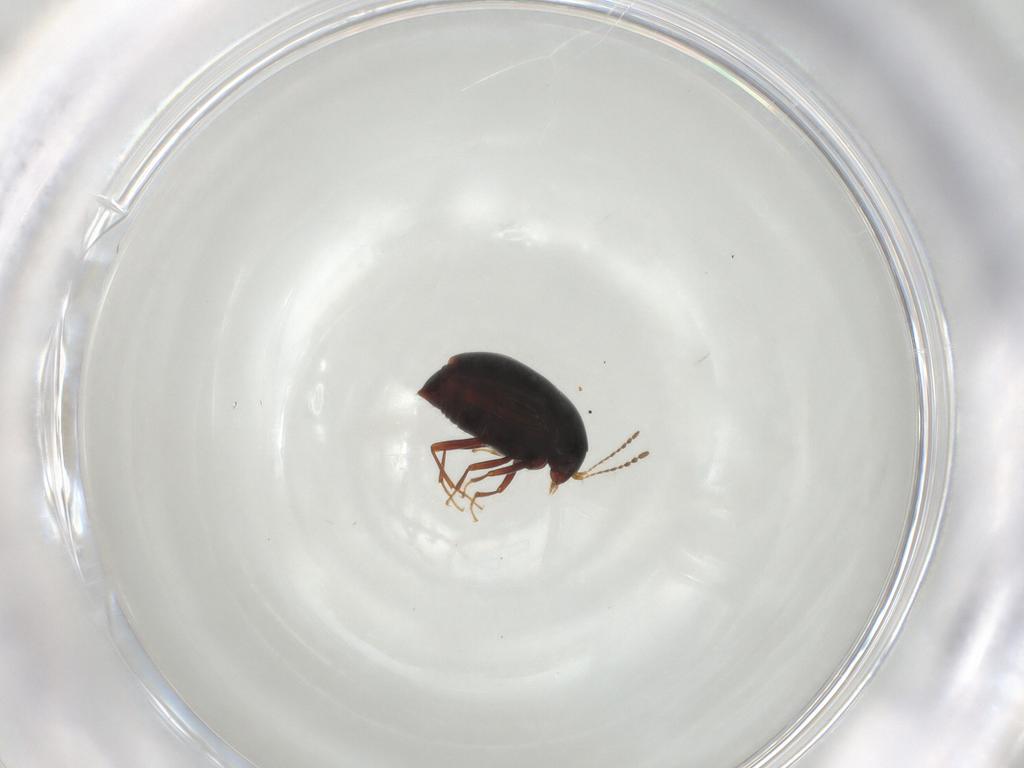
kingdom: Animalia
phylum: Arthropoda
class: Insecta
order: Coleoptera
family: Staphylinidae
